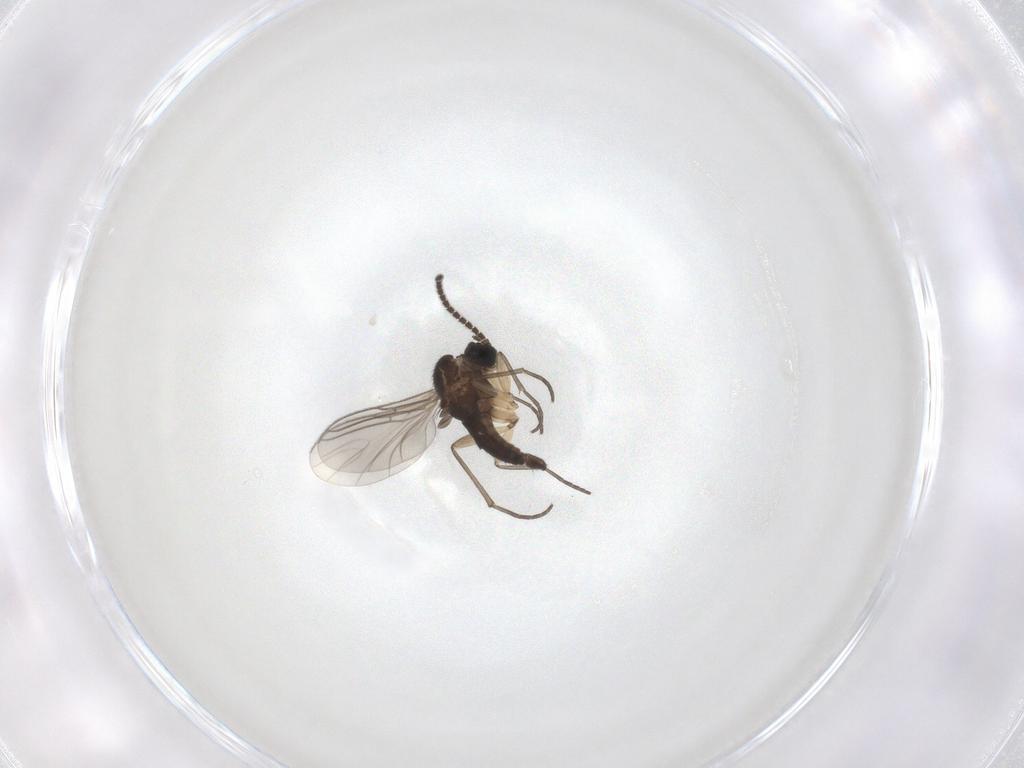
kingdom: Animalia
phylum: Arthropoda
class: Insecta
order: Diptera
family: Sciaridae
